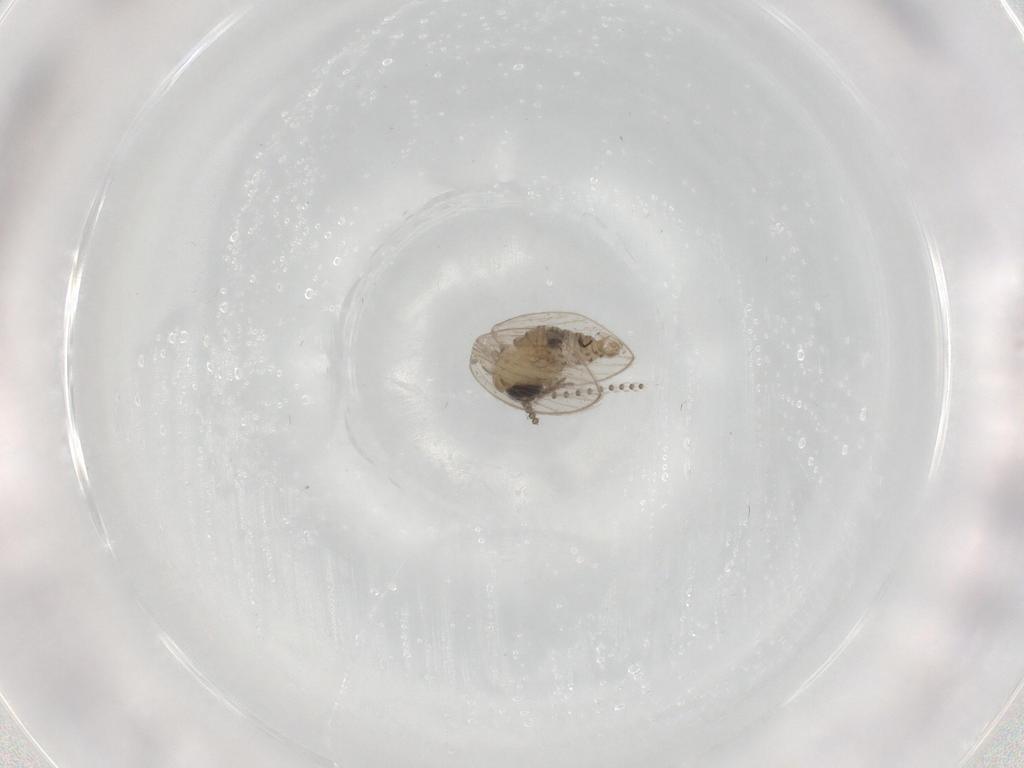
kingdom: Animalia
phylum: Arthropoda
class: Insecta
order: Diptera
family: Psychodidae
